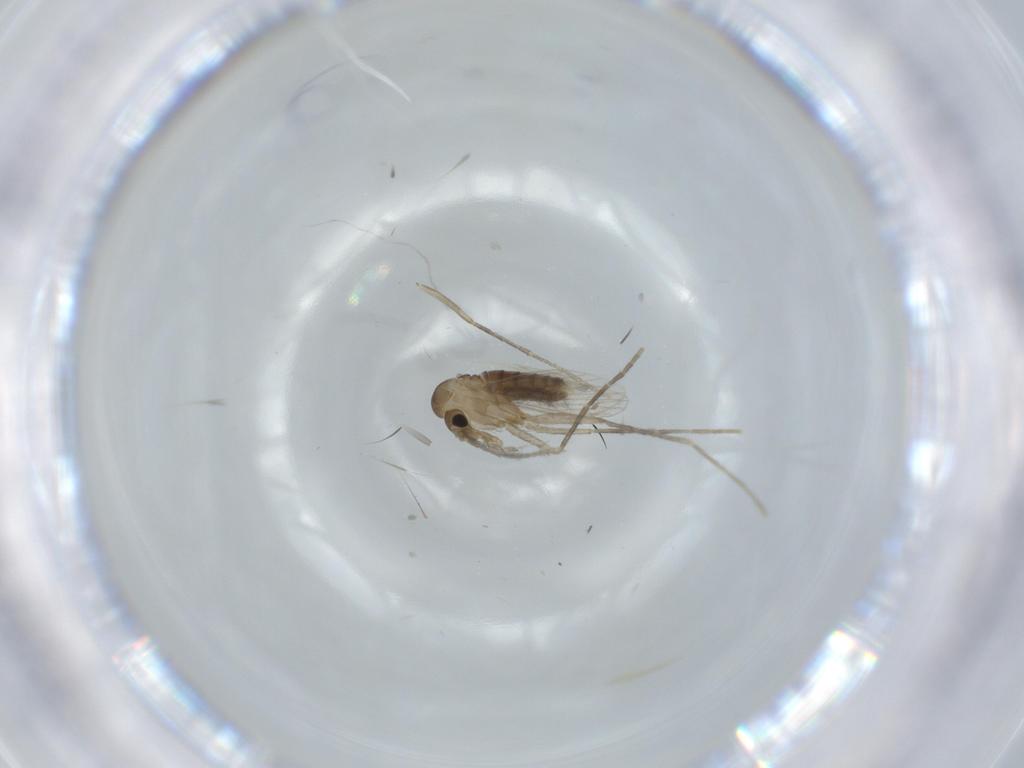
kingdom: Animalia
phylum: Arthropoda
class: Insecta
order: Diptera
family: Psychodidae
